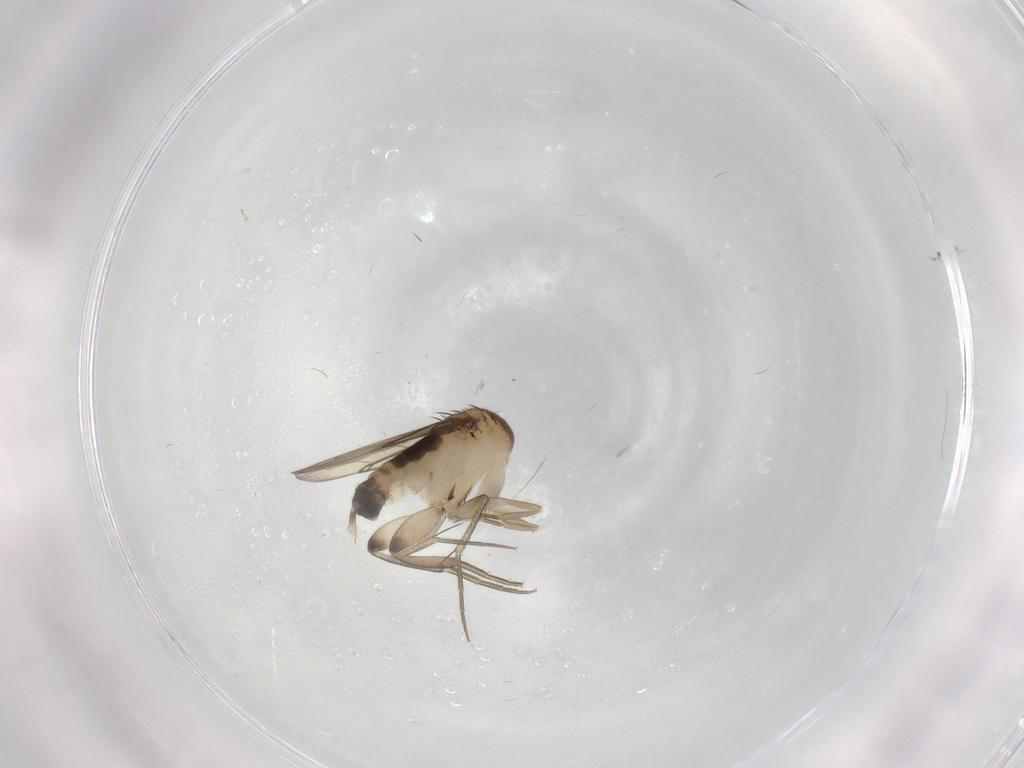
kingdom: Animalia
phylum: Arthropoda
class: Insecta
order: Diptera
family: Phoridae
